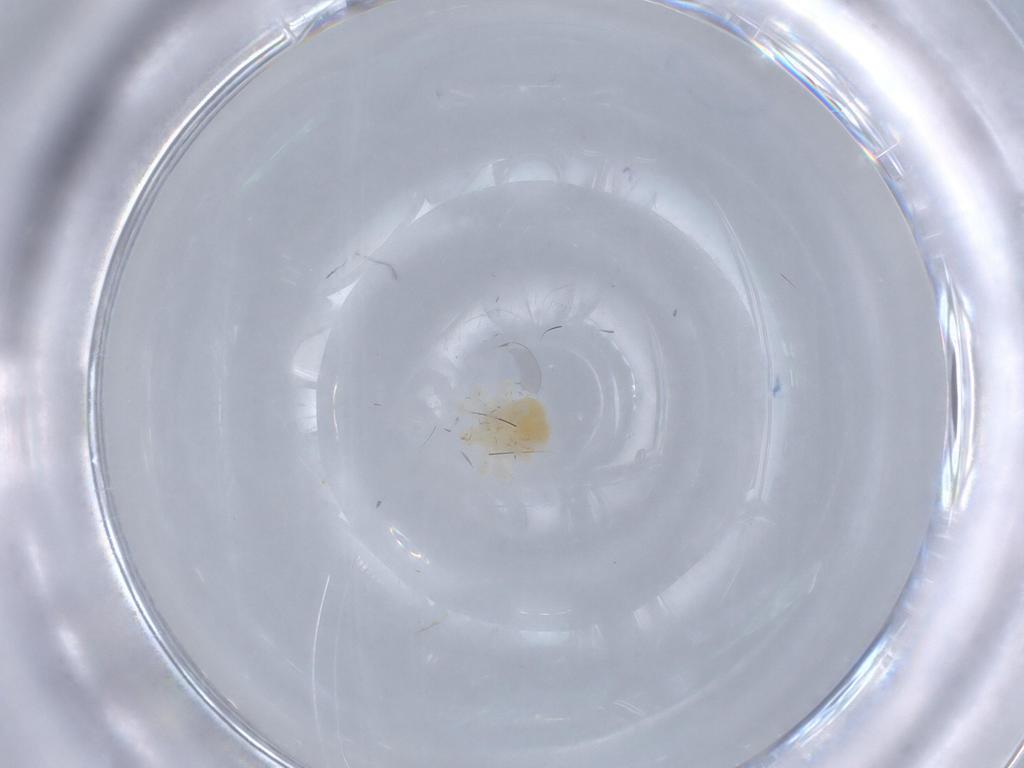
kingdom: Animalia
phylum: Arthropoda
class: Arachnida
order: Trombidiformes
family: Anystidae
